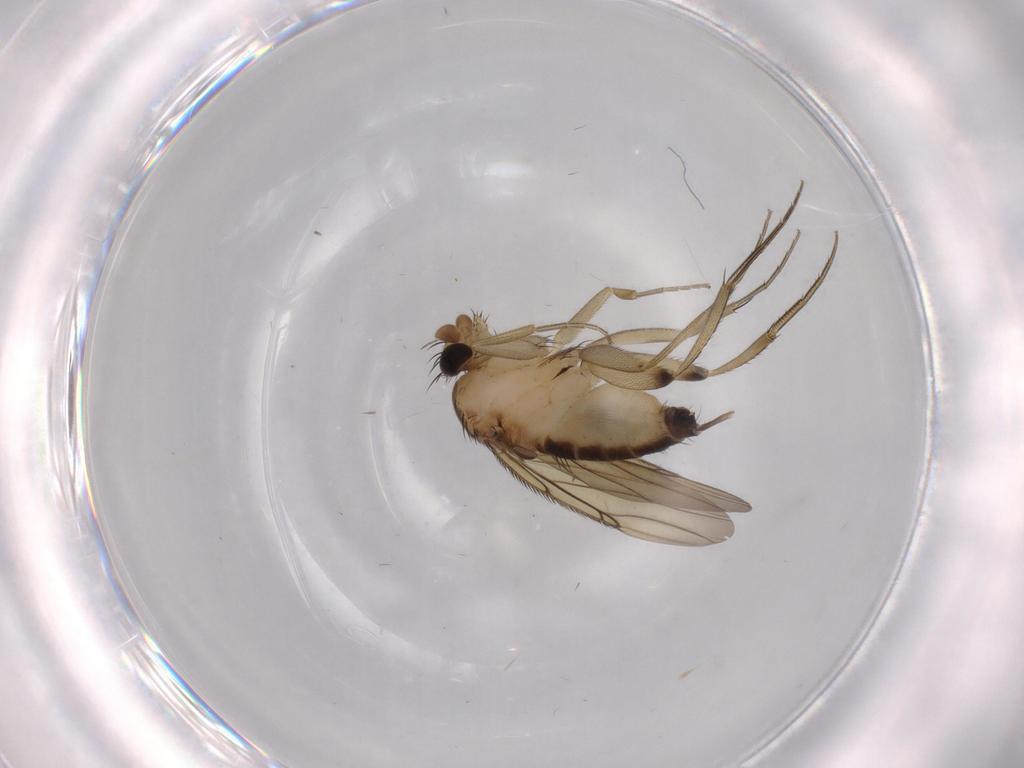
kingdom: Animalia
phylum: Arthropoda
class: Insecta
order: Diptera
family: Phoridae
